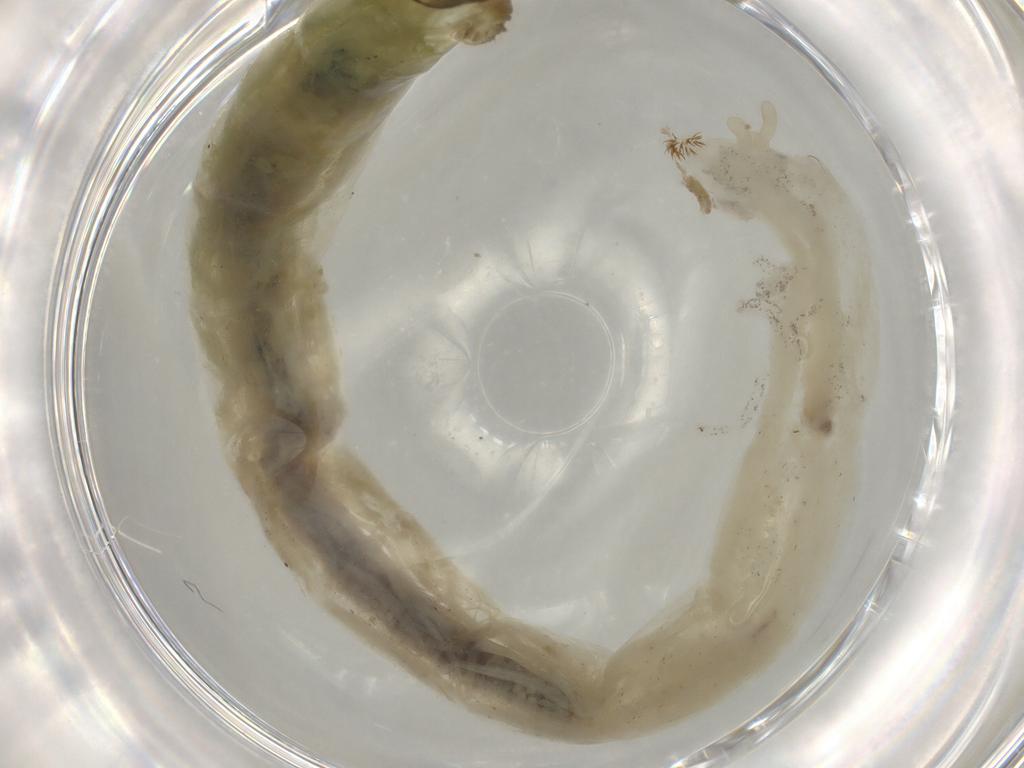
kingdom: Animalia
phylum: Arthropoda
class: Insecta
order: Diptera
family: Chironomidae
